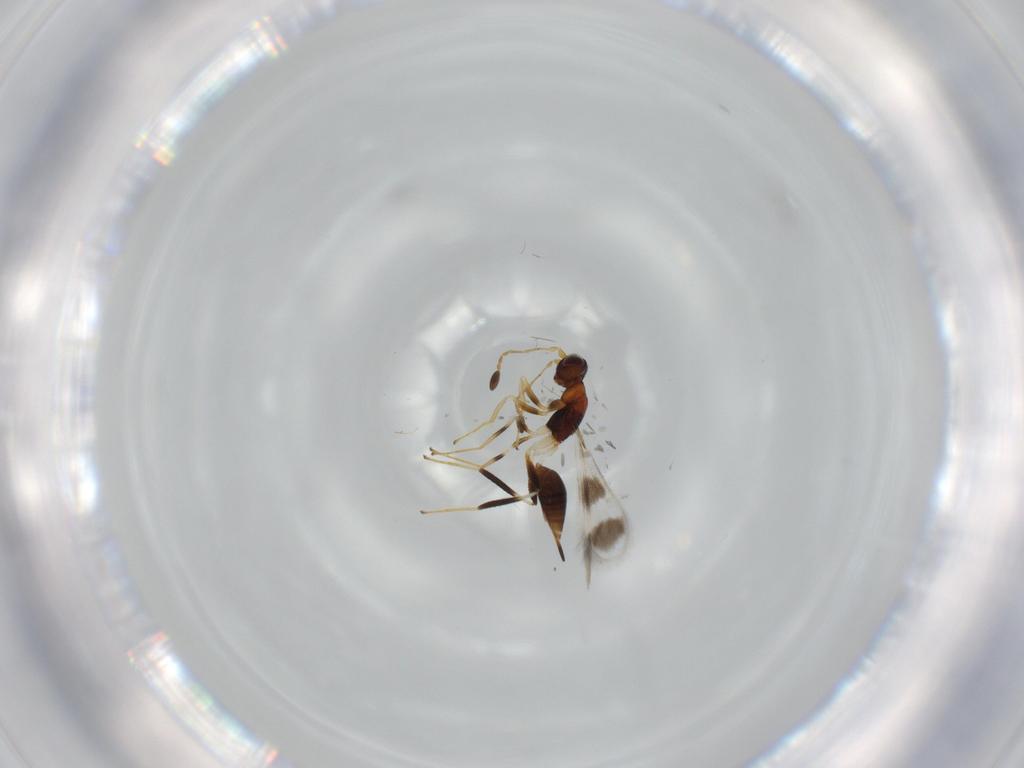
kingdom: Animalia
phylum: Arthropoda
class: Insecta
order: Hymenoptera
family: Mymaridae
